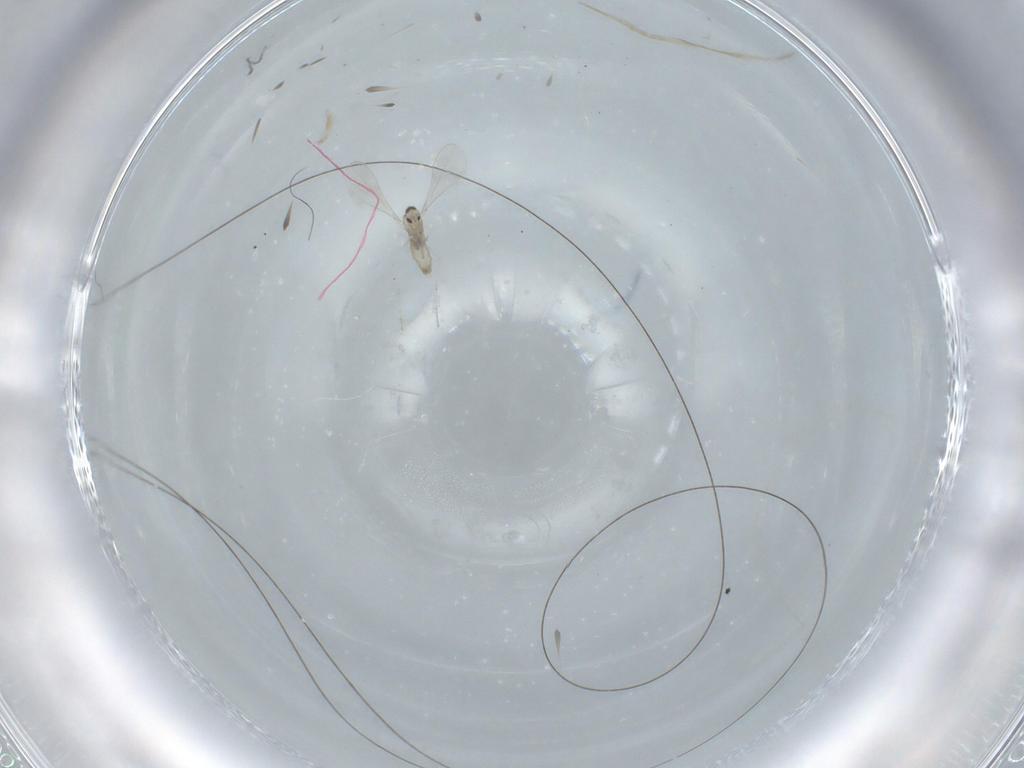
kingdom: Animalia
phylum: Arthropoda
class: Insecta
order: Diptera
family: Cecidomyiidae
